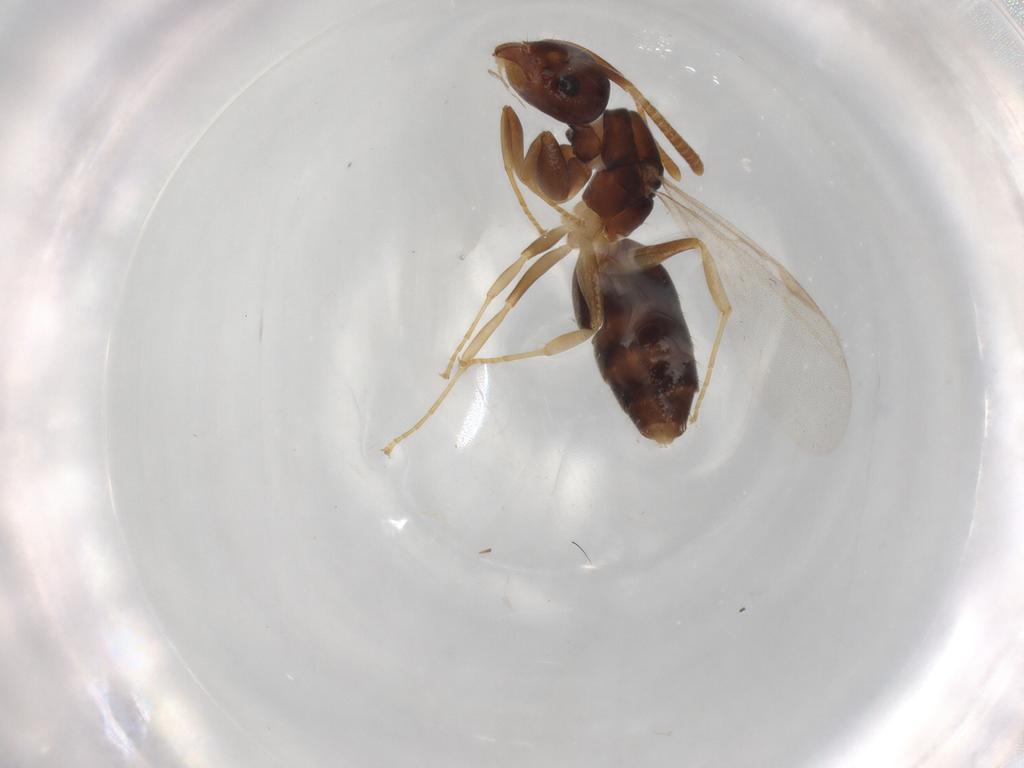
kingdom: Animalia
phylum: Arthropoda
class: Insecta
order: Hymenoptera
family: Formicidae
